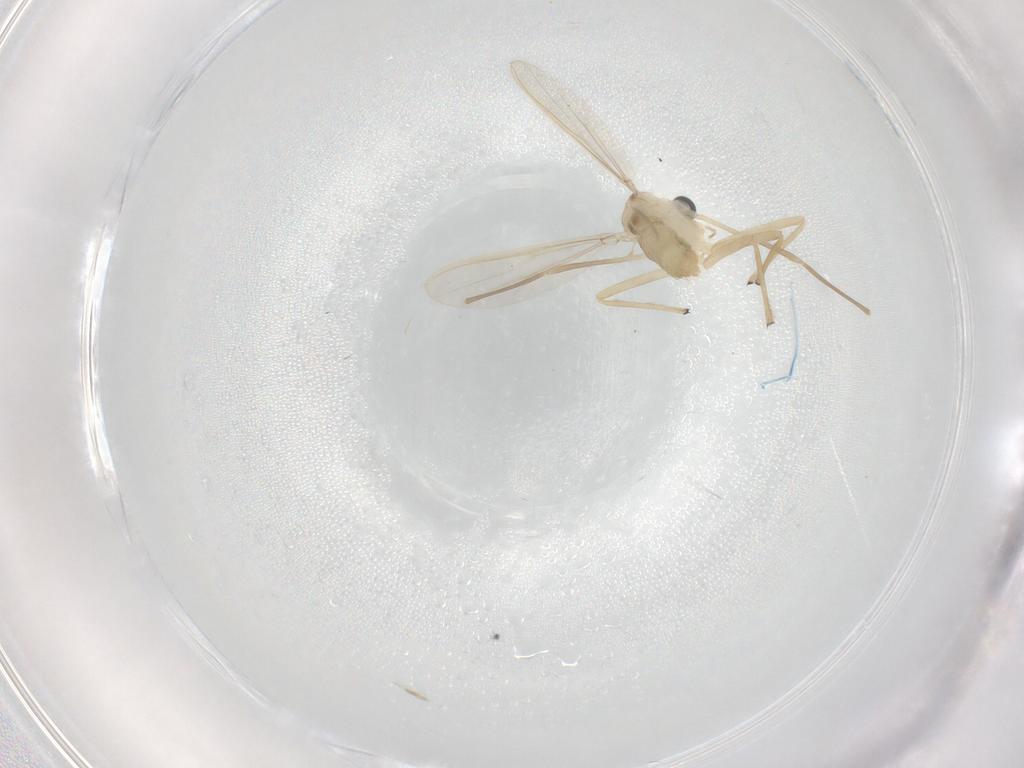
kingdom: Animalia
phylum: Arthropoda
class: Insecta
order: Diptera
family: Chironomidae
